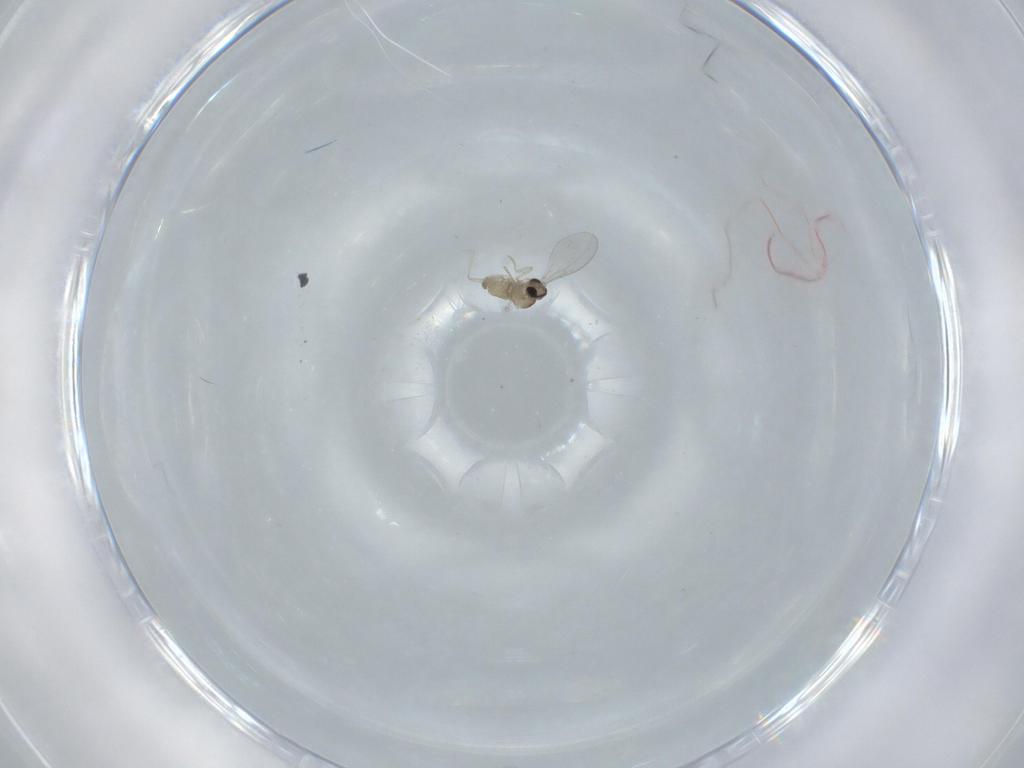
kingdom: Animalia
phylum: Arthropoda
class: Insecta
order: Diptera
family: Cecidomyiidae
